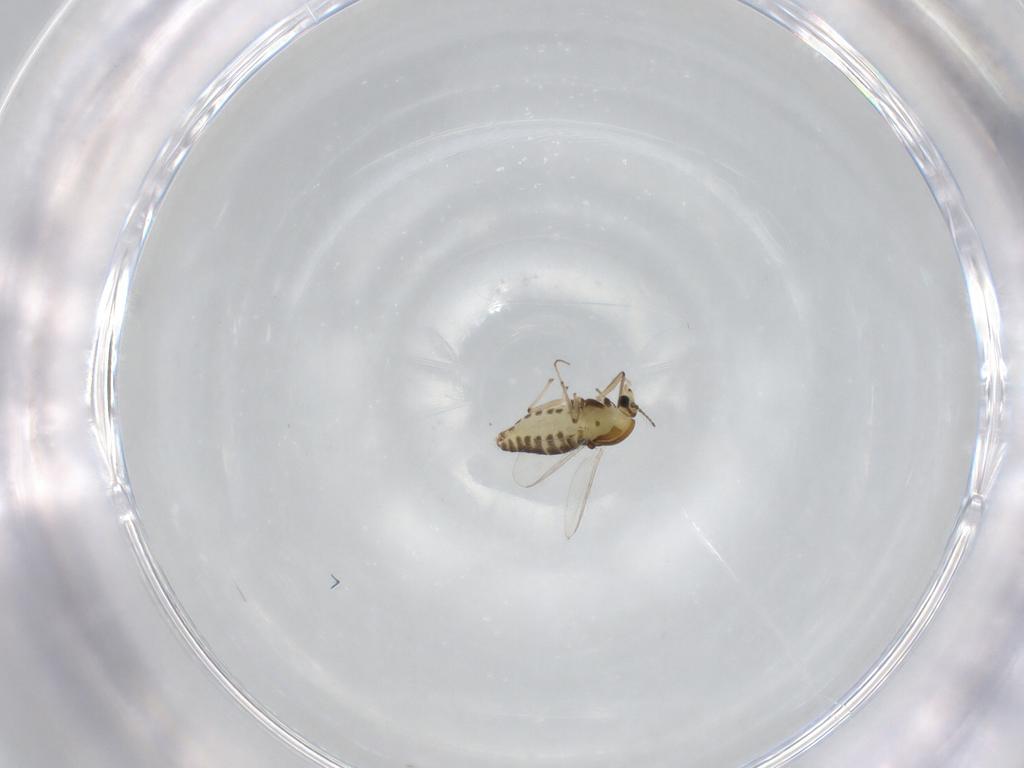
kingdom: Animalia
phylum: Arthropoda
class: Insecta
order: Diptera
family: Chironomidae
